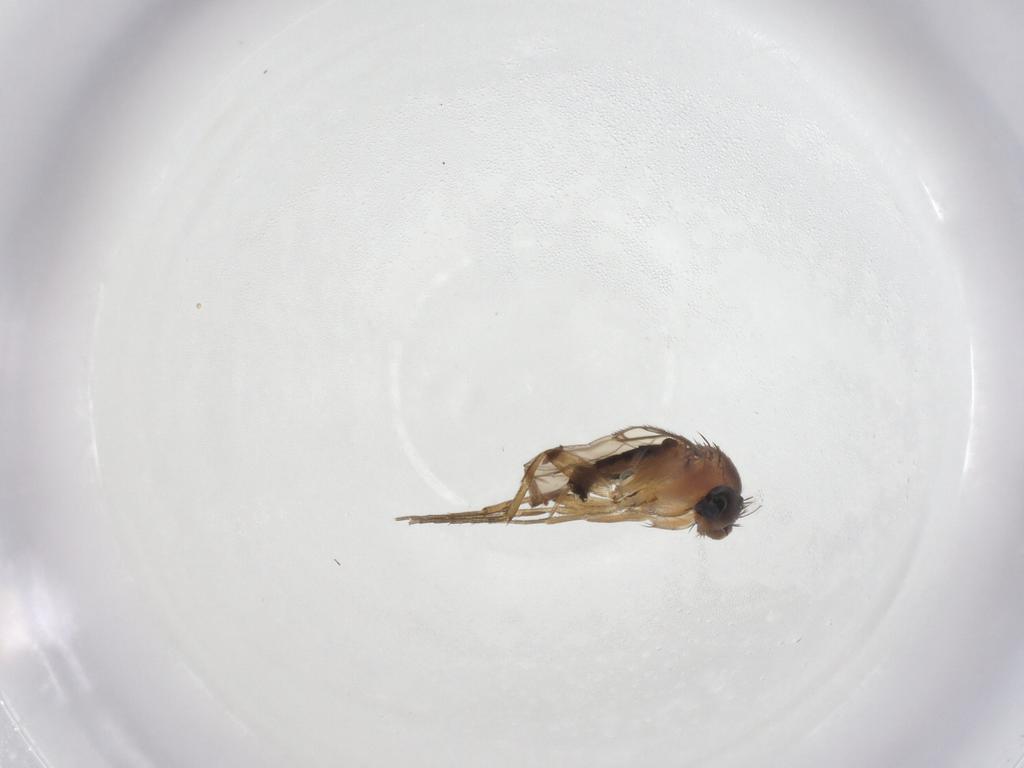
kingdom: Animalia
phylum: Arthropoda
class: Insecta
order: Diptera
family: Phoridae
